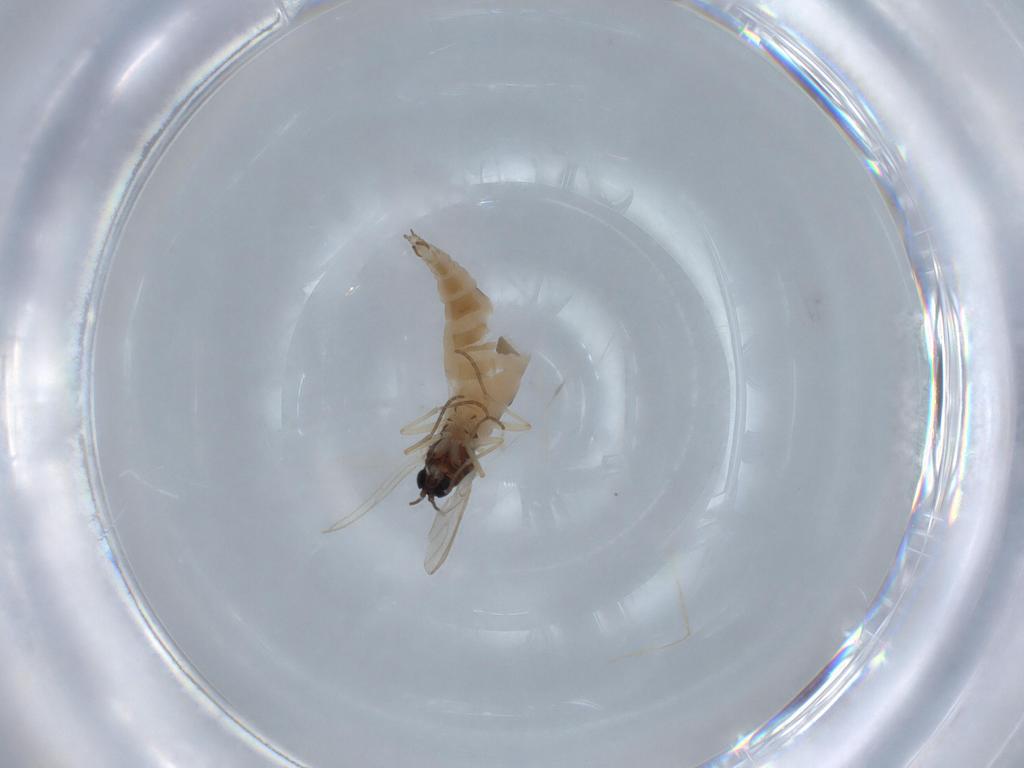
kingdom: Animalia
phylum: Arthropoda
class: Insecta
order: Diptera
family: Sciaridae
